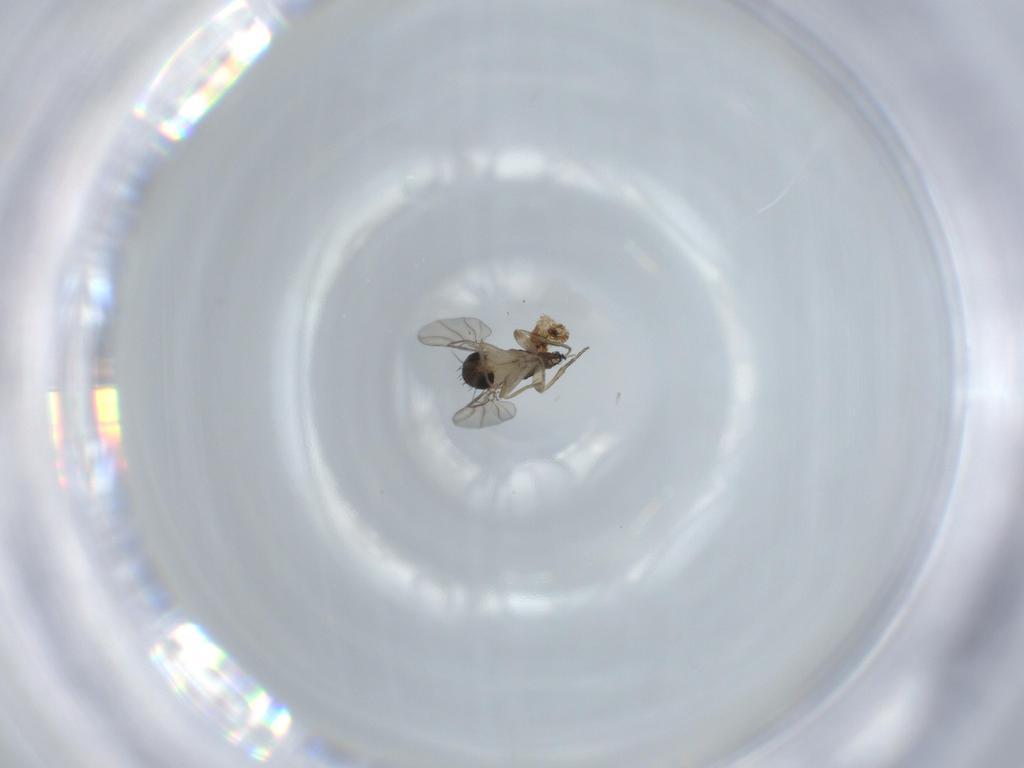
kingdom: Animalia
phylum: Arthropoda
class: Insecta
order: Diptera
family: Phoridae
